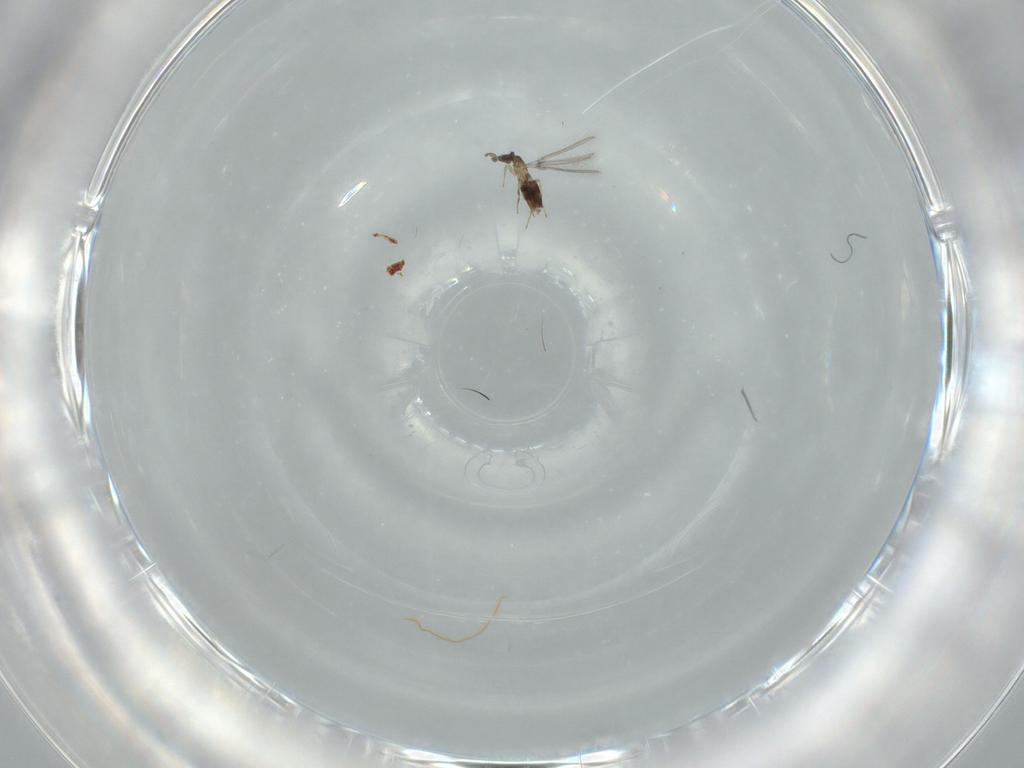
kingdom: Animalia
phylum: Arthropoda
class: Insecta
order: Hymenoptera
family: Mymaridae
